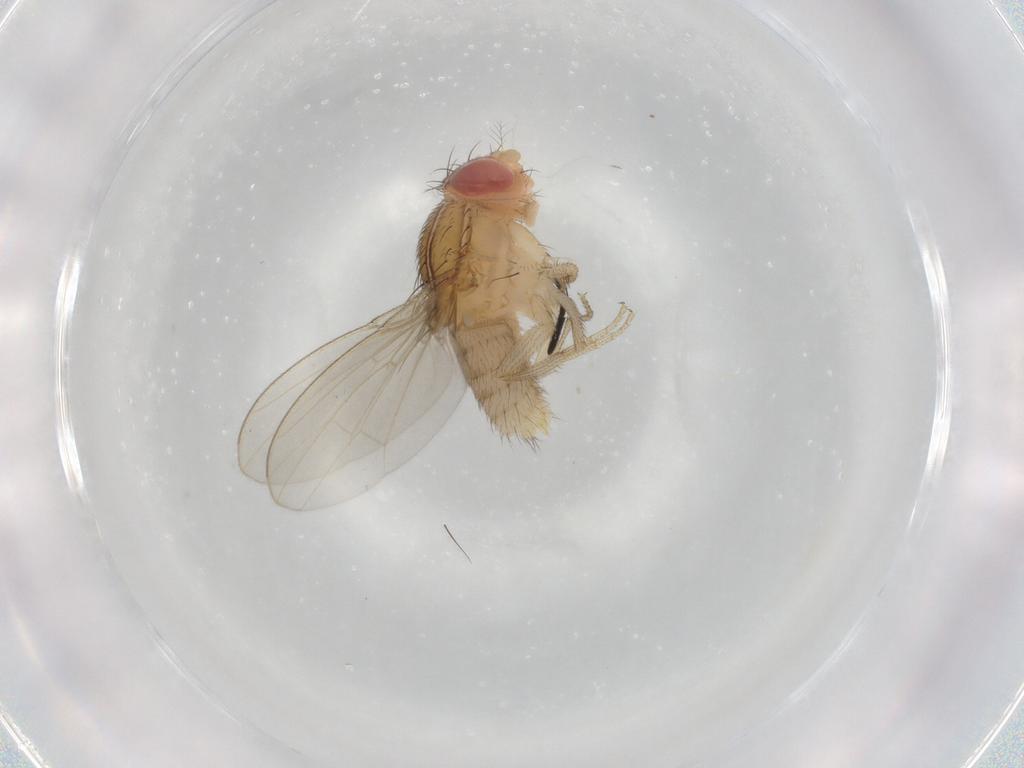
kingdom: Animalia
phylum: Arthropoda
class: Insecta
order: Diptera
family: Drosophilidae
